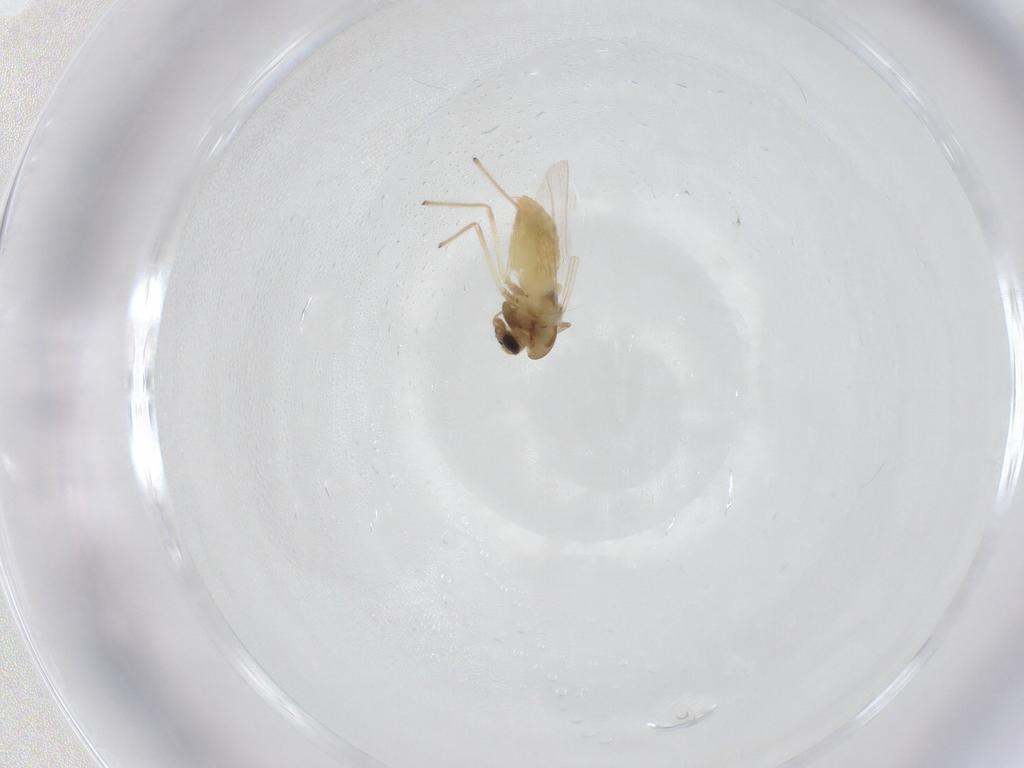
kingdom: Animalia
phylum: Arthropoda
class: Insecta
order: Diptera
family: Chironomidae
